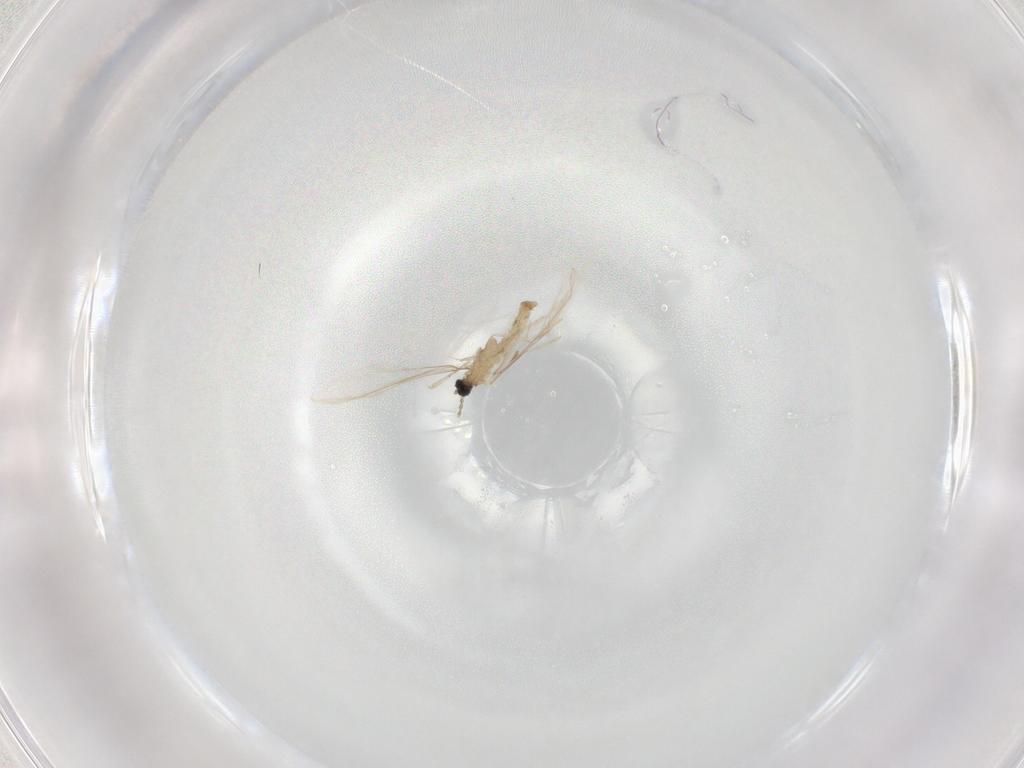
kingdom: Animalia
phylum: Arthropoda
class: Insecta
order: Diptera
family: Cecidomyiidae
